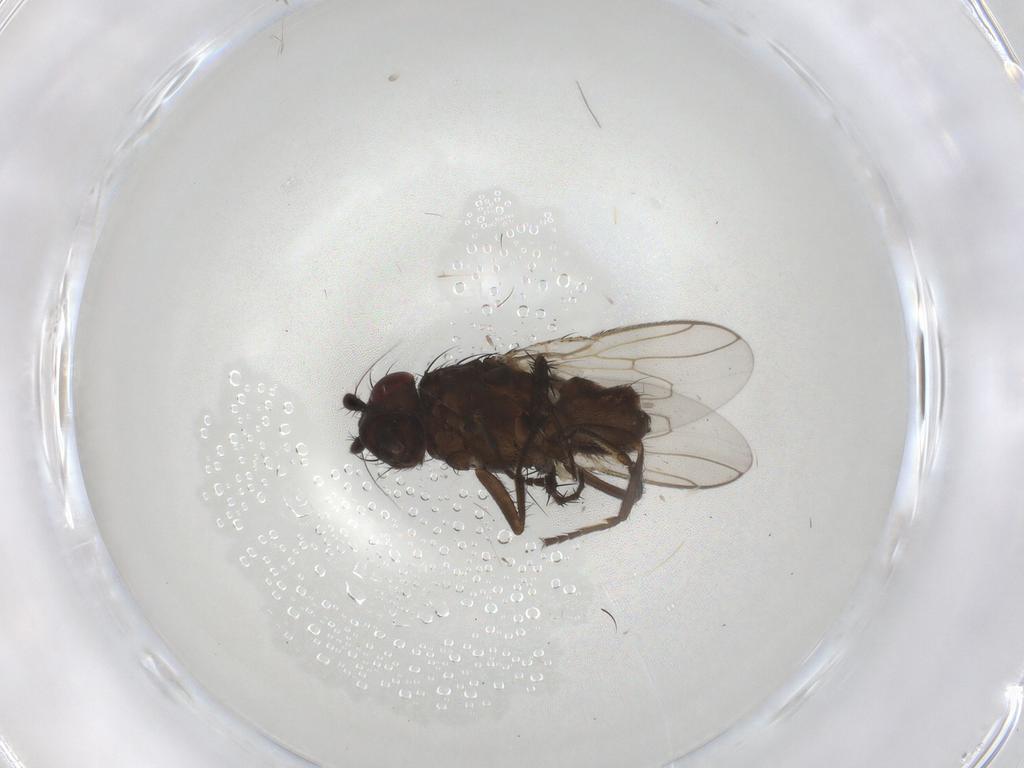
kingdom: Animalia
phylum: Arthropoda
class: Insecta
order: Diptera
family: Sphaeroceridae
